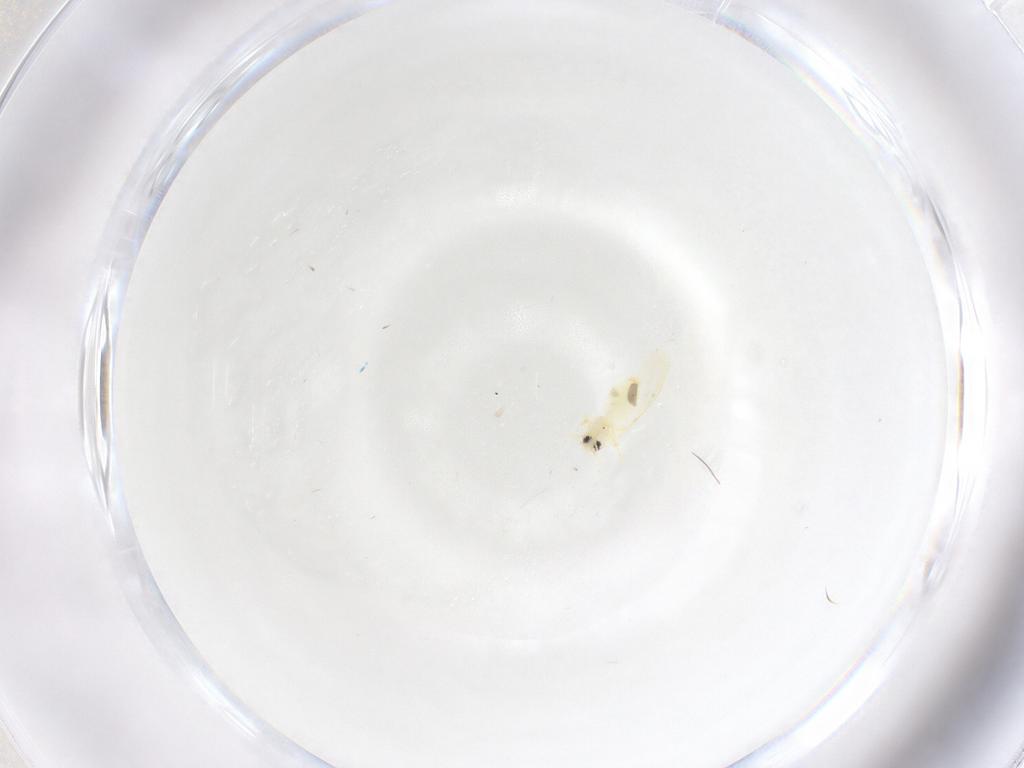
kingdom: Animalia
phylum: Arthropoda
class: Insecta
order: Hemiptera
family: Aleyrodidae
